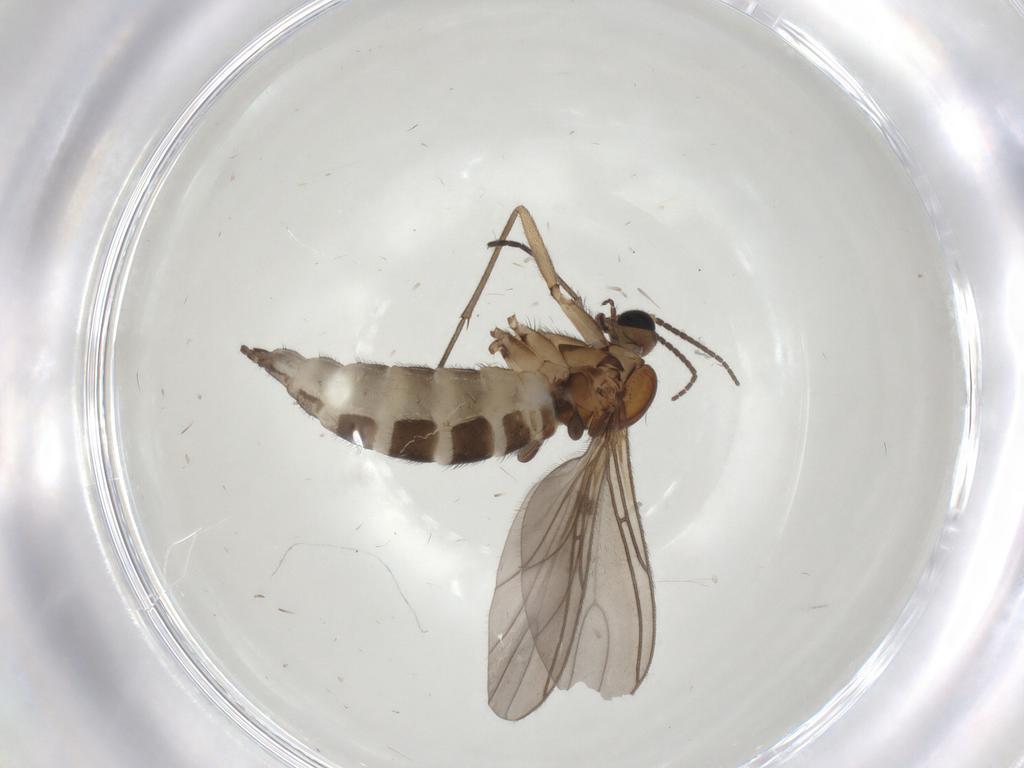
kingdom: Animalia
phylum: Arthropoda
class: Insecta
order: Diptera
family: Sciaridae
